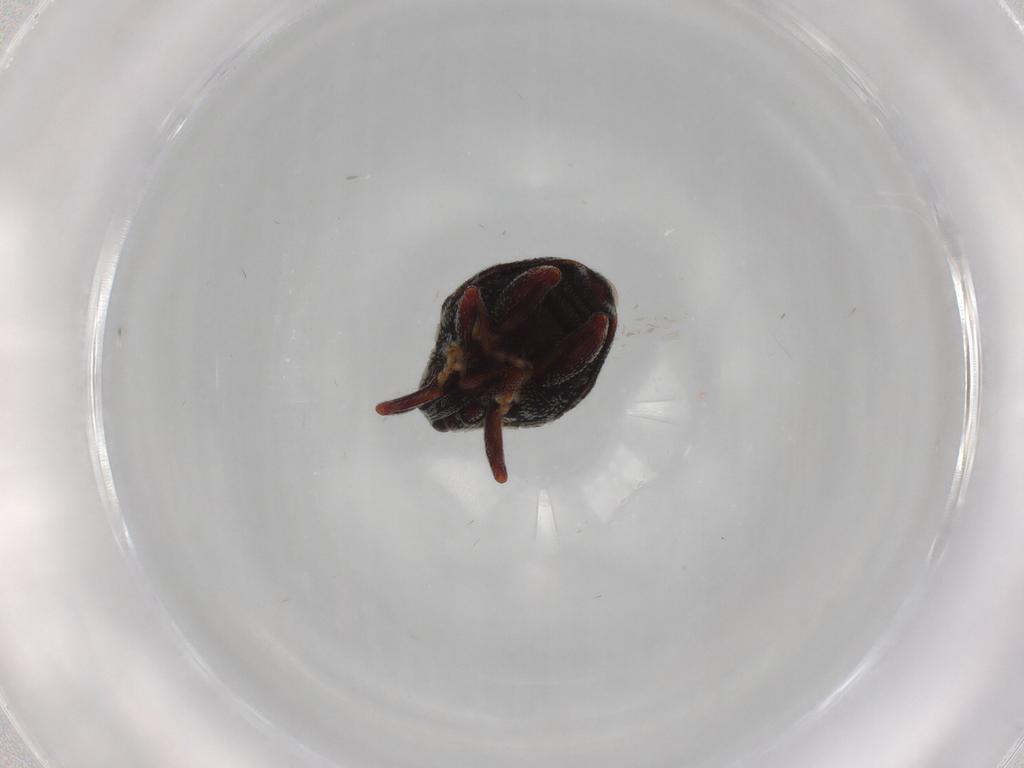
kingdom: Animalia
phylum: Arthropoda
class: Insecta
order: Coleoptera
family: Curculionidae
